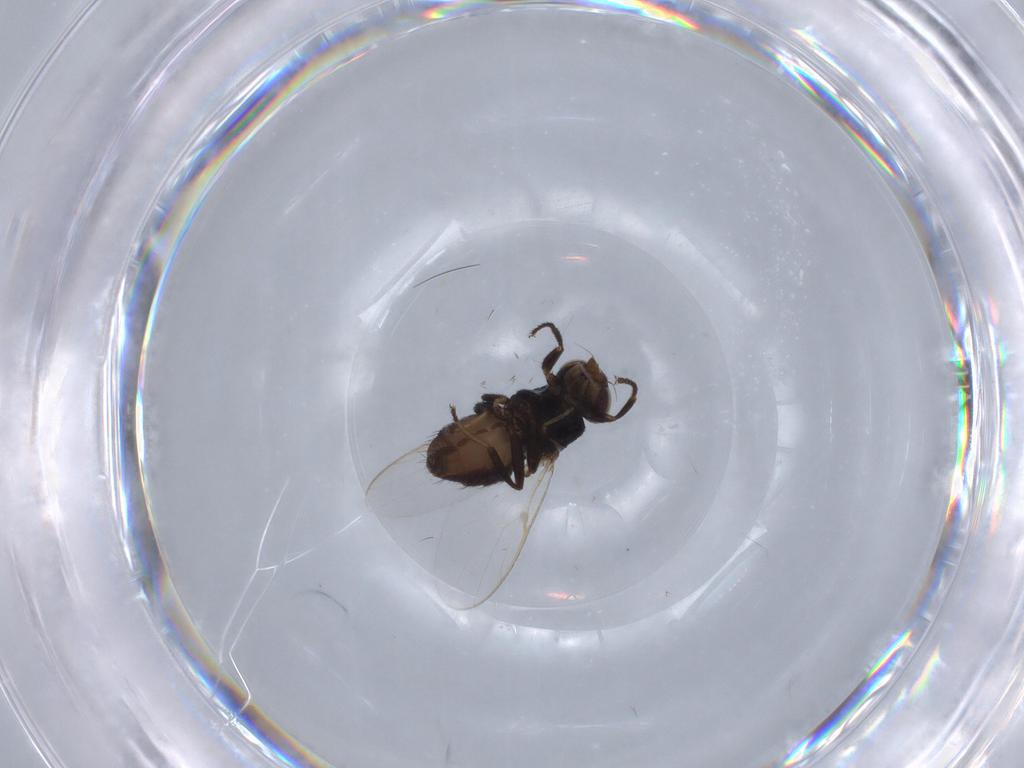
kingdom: Animalia
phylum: Arthropoda
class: Insecta
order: Diptera
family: Chloropidae
